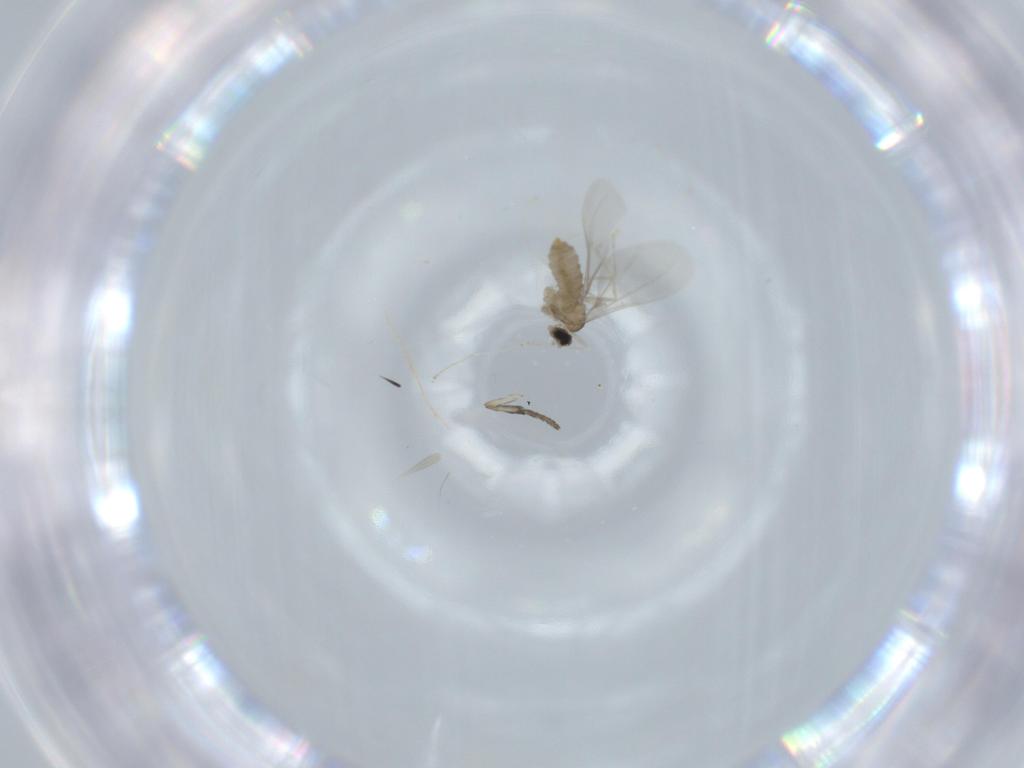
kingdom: Animalia
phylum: Arthropoda
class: Insecta
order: Diptera
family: Cecidomyiidae
